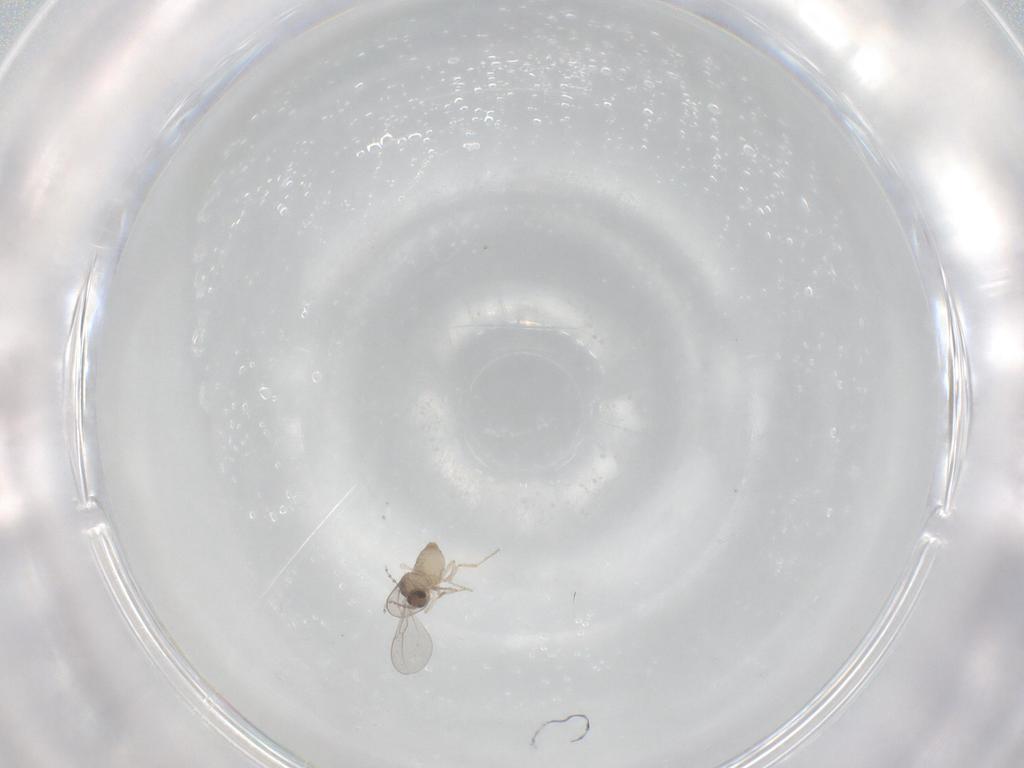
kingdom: Animalia
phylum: Arthropoda
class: Insecta
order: Diptera
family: Cecidomyiidae
